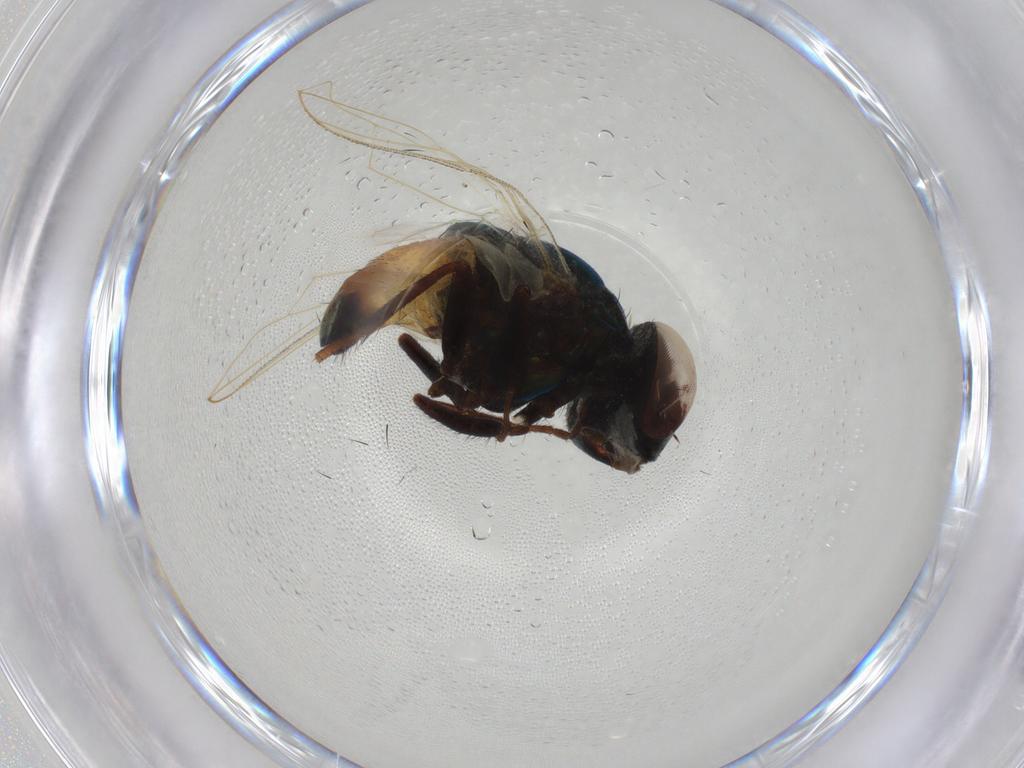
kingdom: Animalia
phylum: Arthropoda
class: Insecta
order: Diptera
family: Muscidae
